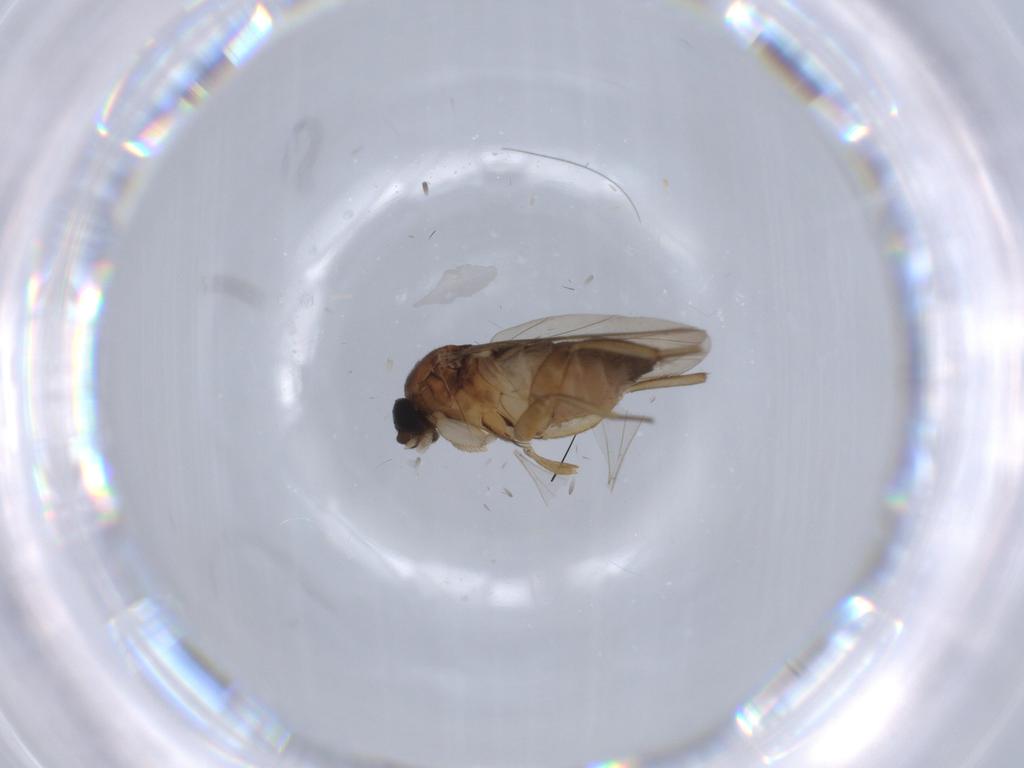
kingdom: Animalia
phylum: Arthropoda
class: Insecta
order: Diptera
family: Phoridae
